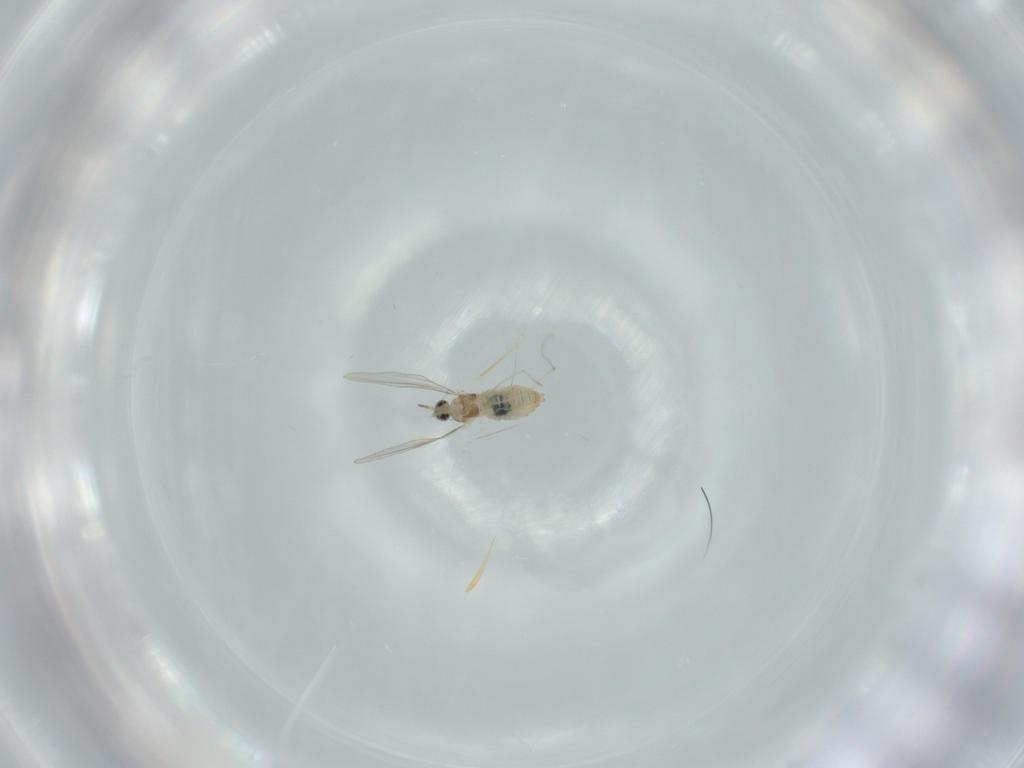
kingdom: Animalia
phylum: Arthropoda
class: Insecta
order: Diptera
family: Cecidomyiidae
